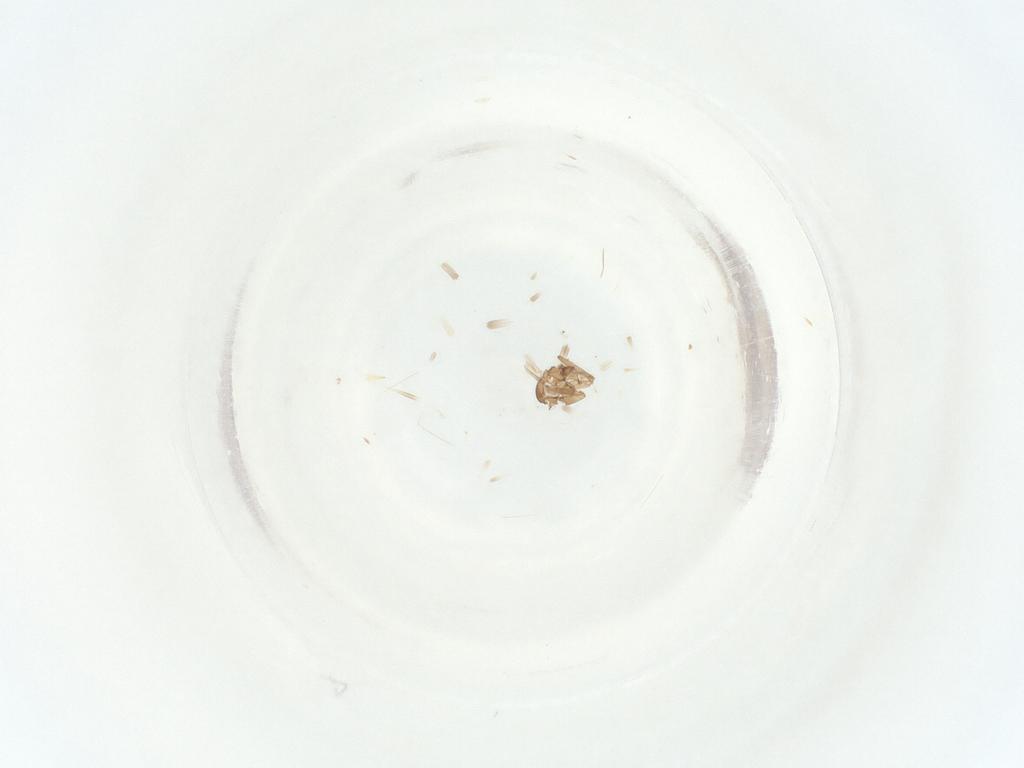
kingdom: Animalia
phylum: Arthropoda
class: Insecta
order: Diptera
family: Sciaridae
